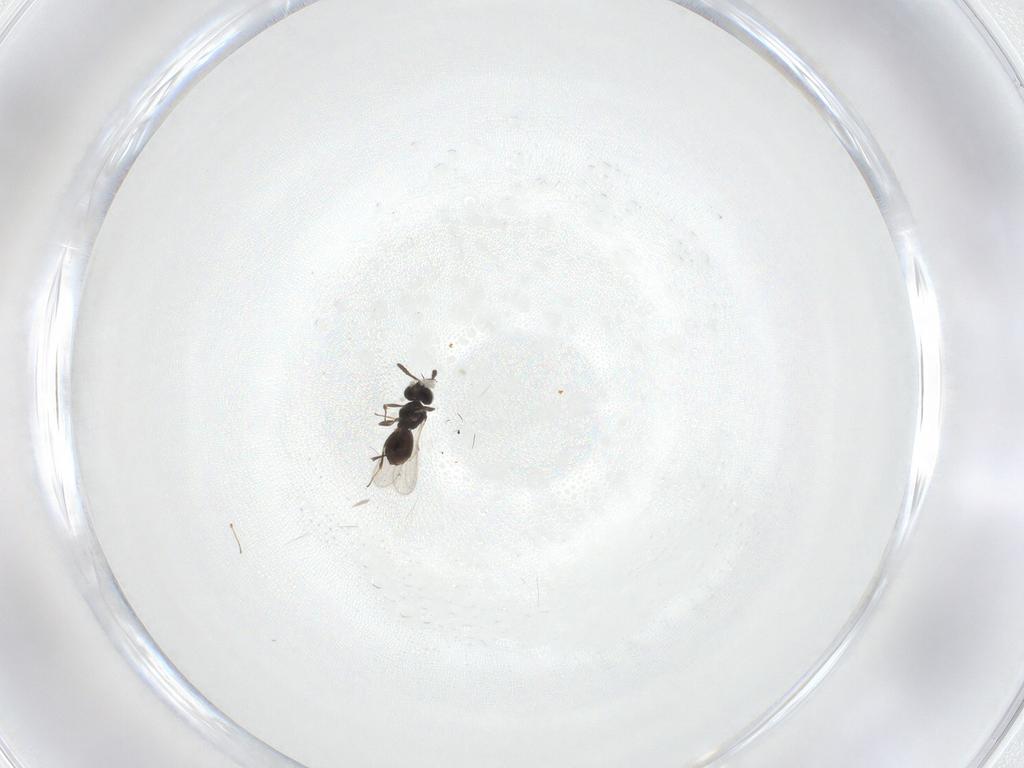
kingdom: Animalia
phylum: Arthropoda
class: Insecta
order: Hymenoptera
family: Scelionidae
